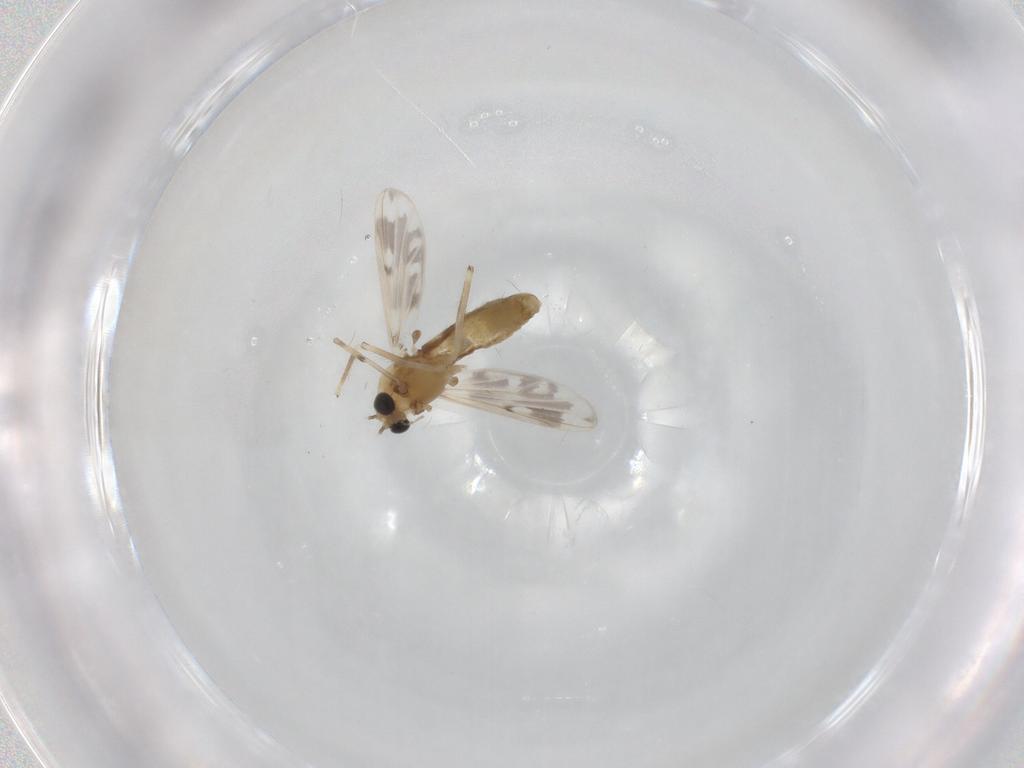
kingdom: Animalia
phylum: Arthropoda
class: Insecta
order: Diptera
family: Chironomidae
